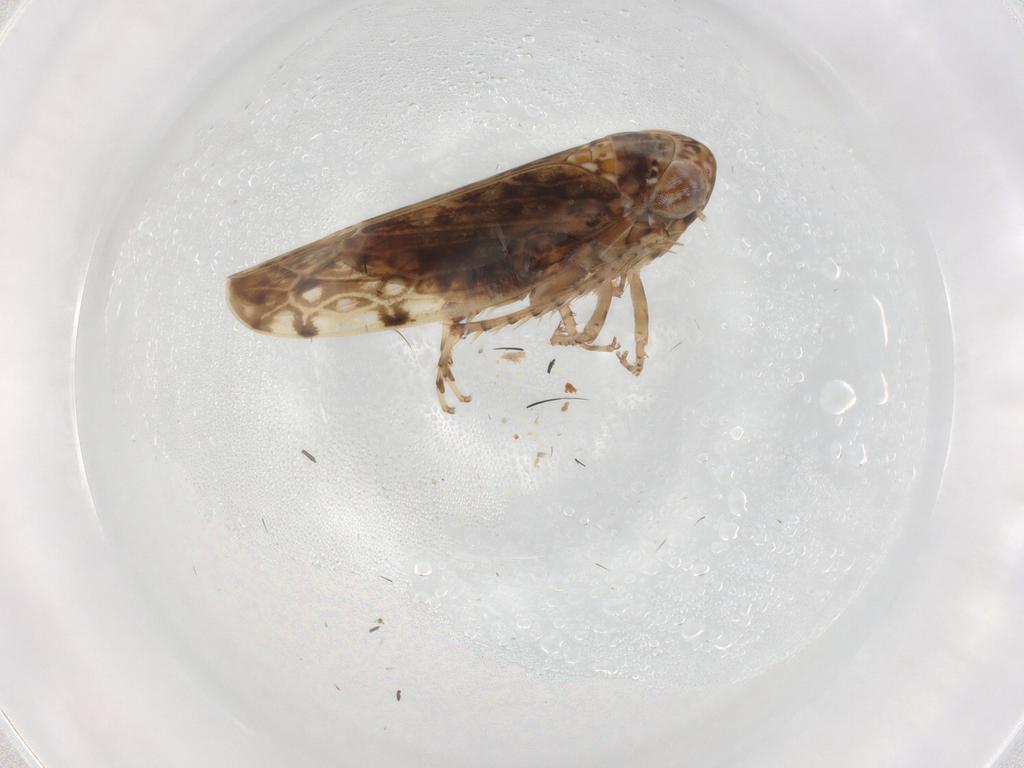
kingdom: Animalia
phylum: Arthropoda
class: Insecta
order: Hemiptera
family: Cicadellidae
